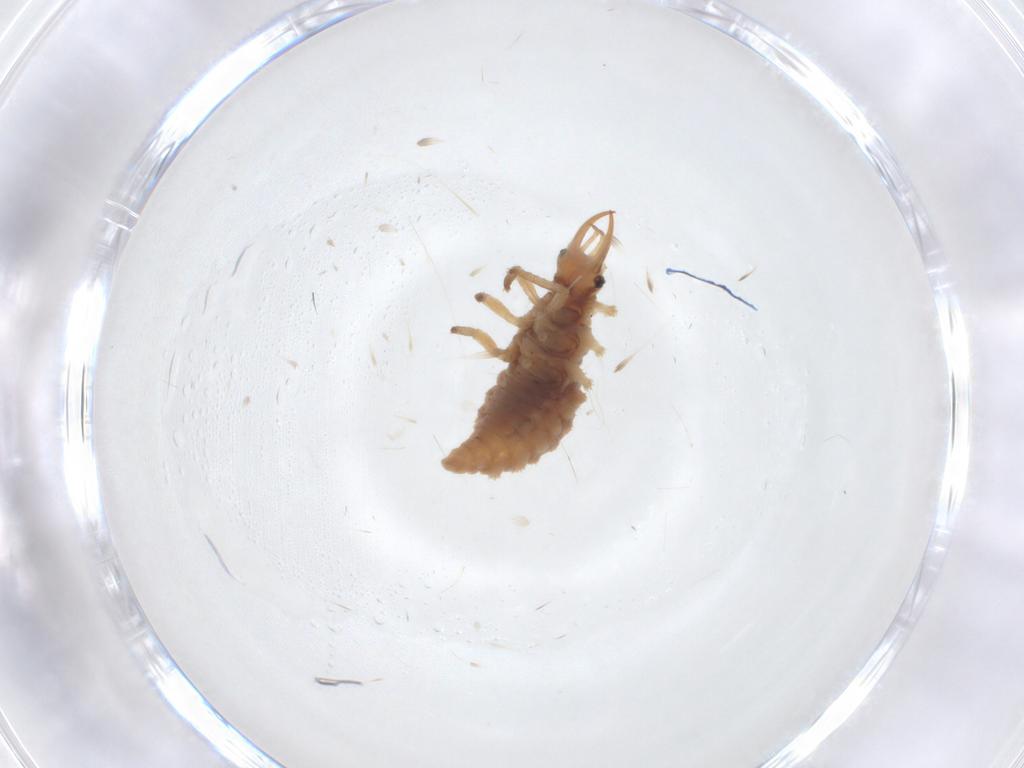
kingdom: Animalia
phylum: Arthropoda
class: Insecta
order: Neuroptera
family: Chrysopidae
